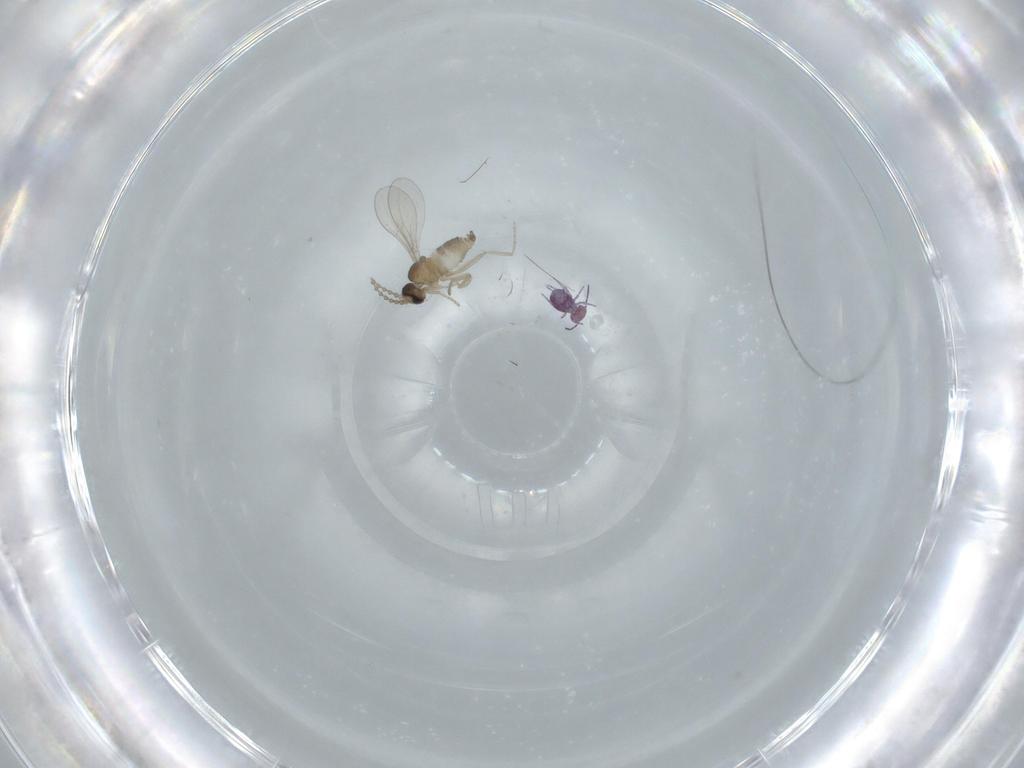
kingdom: Animalia
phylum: Arthropoda
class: Insecta
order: Diptera
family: Cecidomyiidae
